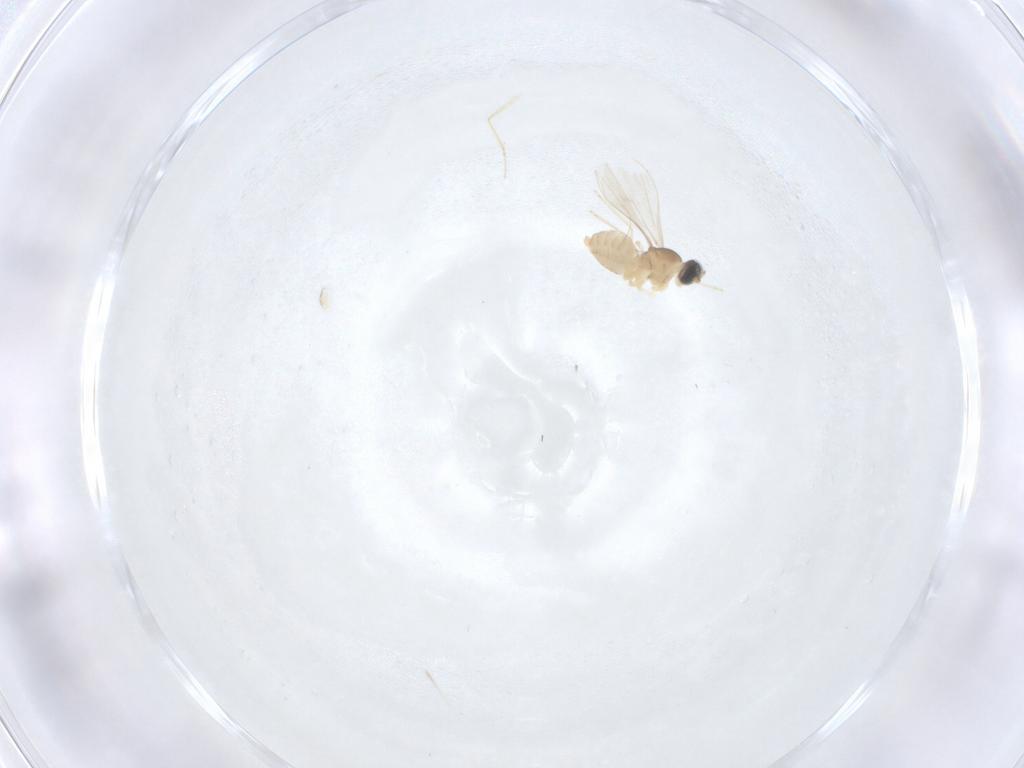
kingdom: Animalia
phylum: Arthropoda
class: Insecta
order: Diptera
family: Cecidomyiidae
